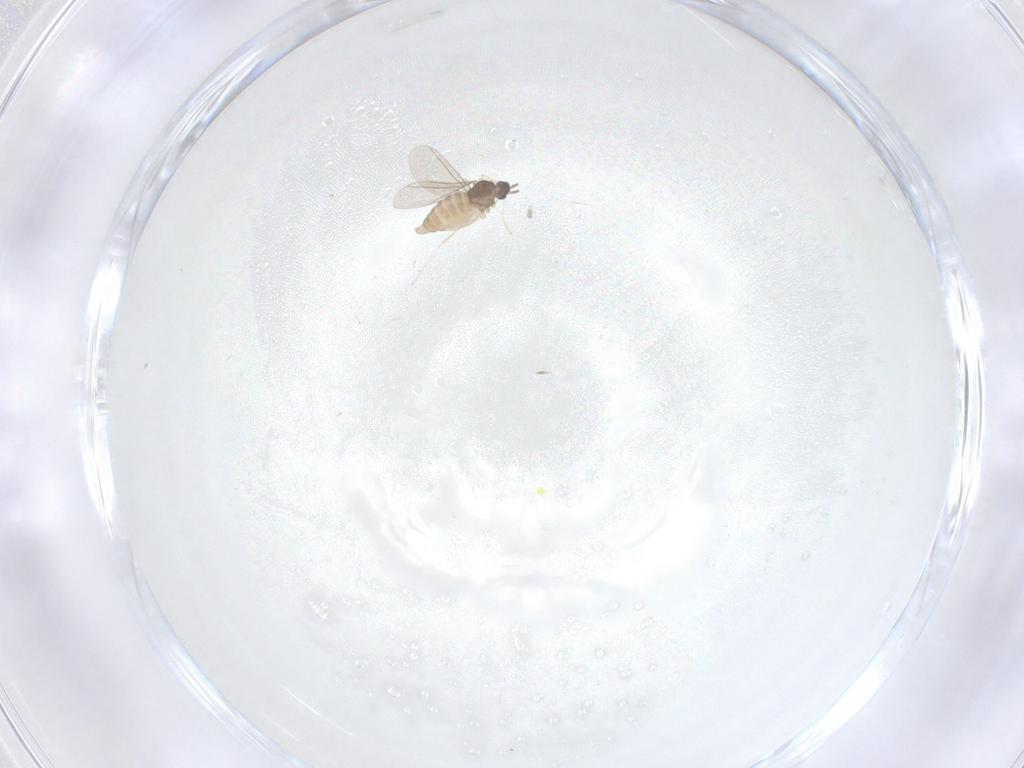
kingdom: Animalia
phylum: Arthropoda
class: Insecta
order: Diptera
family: Cecidomyiidae
